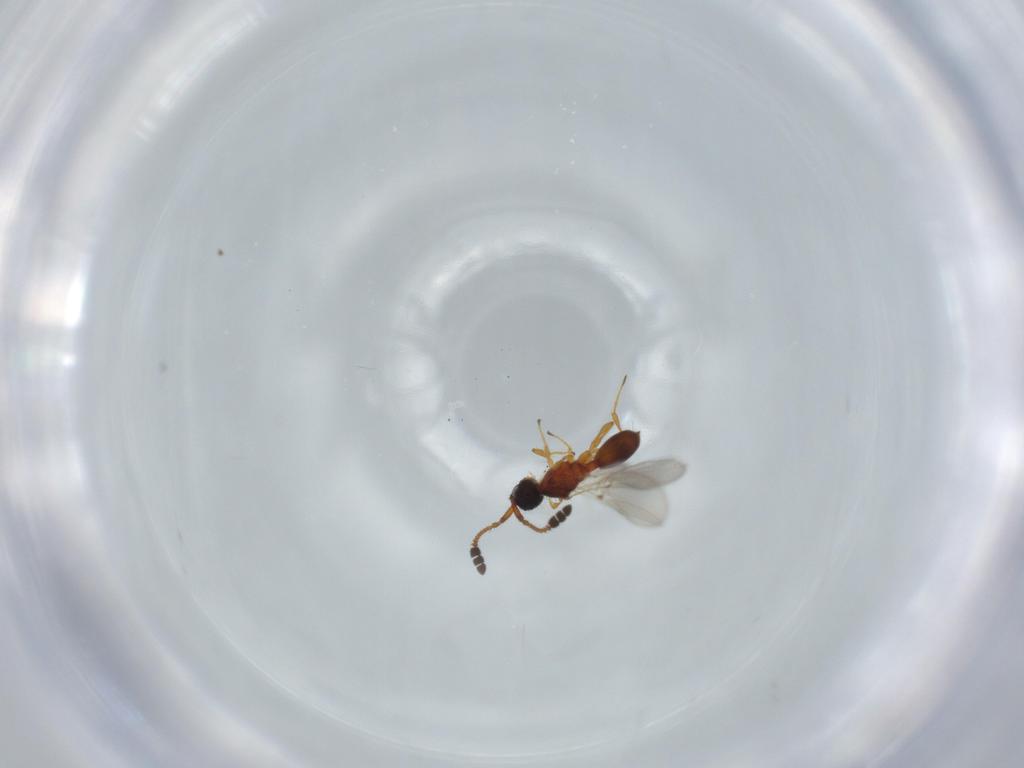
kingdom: Animalia
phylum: Arthropoda
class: Insecta
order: Hymenoptera
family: Diapriidae
